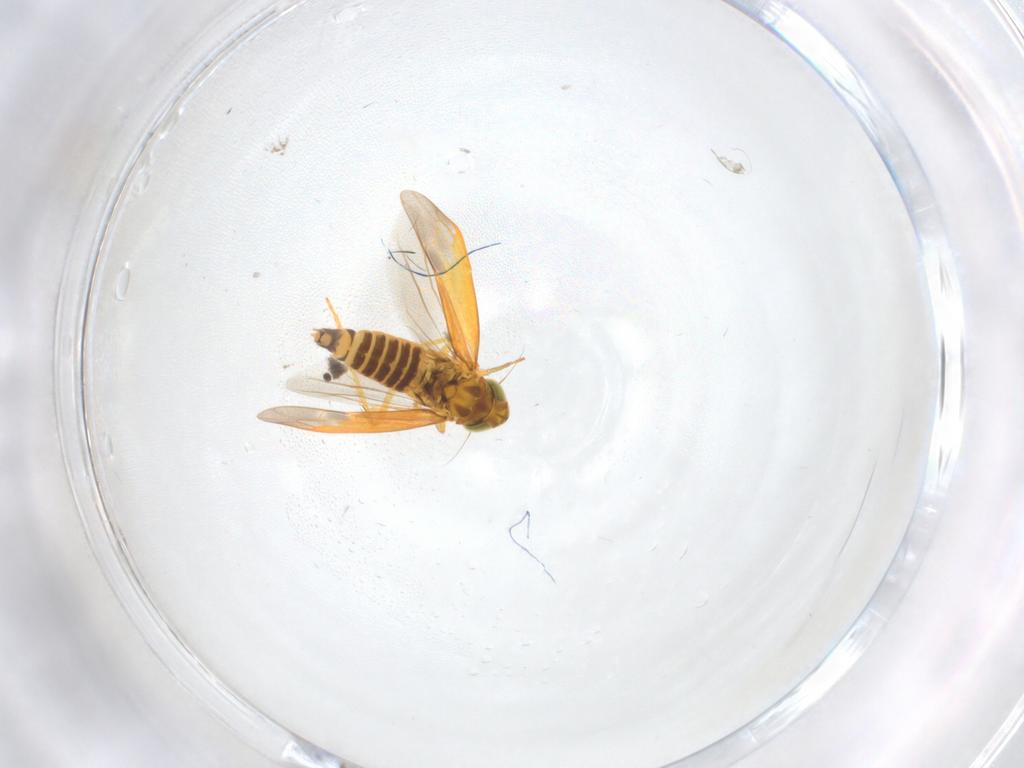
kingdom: Animalia
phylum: Arthropoda
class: Insecta
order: Hemiptera
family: Cicadellidae
